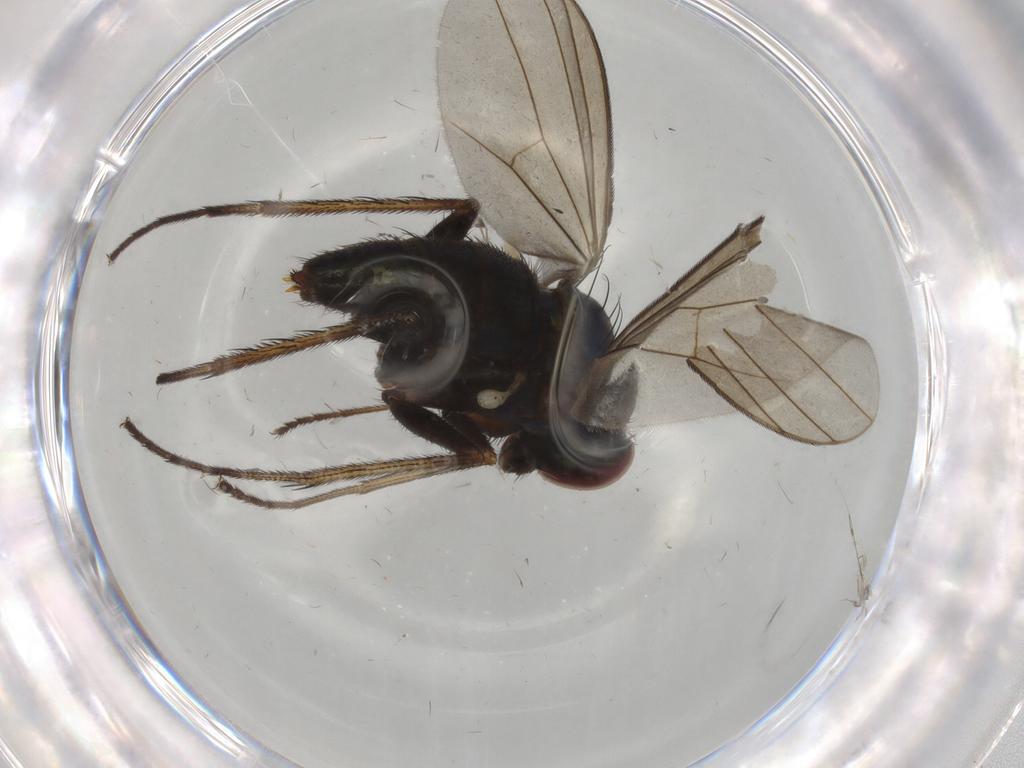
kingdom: Animalia
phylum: Arthropoda
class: Insecta
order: Diptera
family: Dolichopodidae
